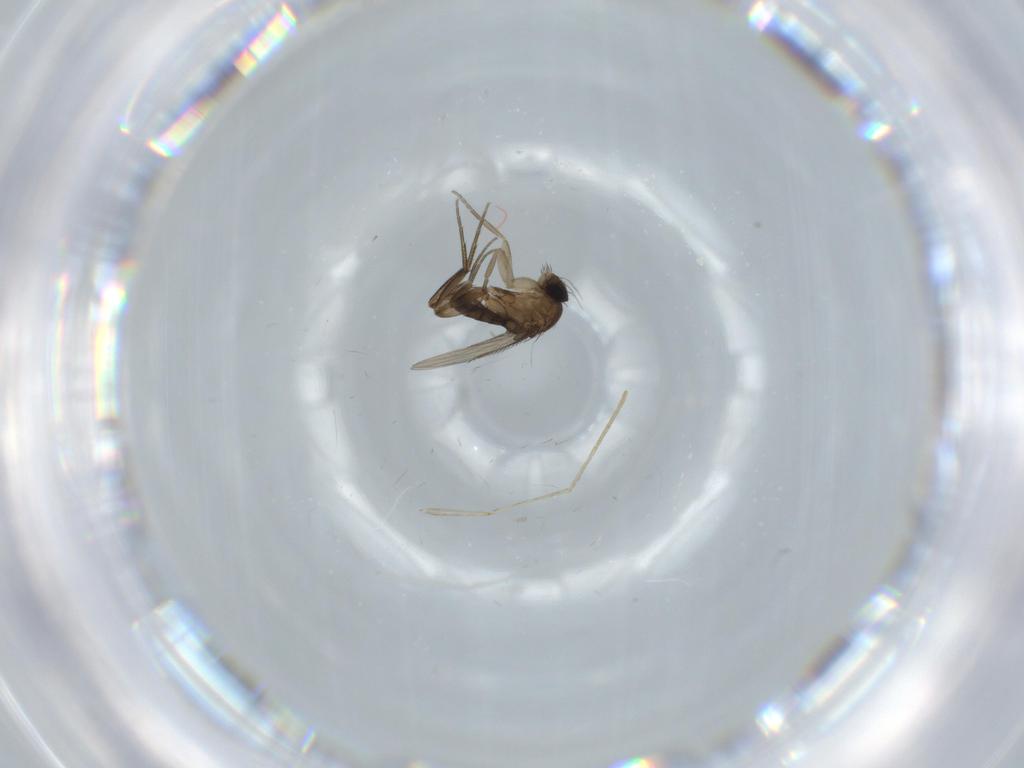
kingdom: Animalia
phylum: Arthropoda
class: Insecta
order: Diptera
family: Phoridae
